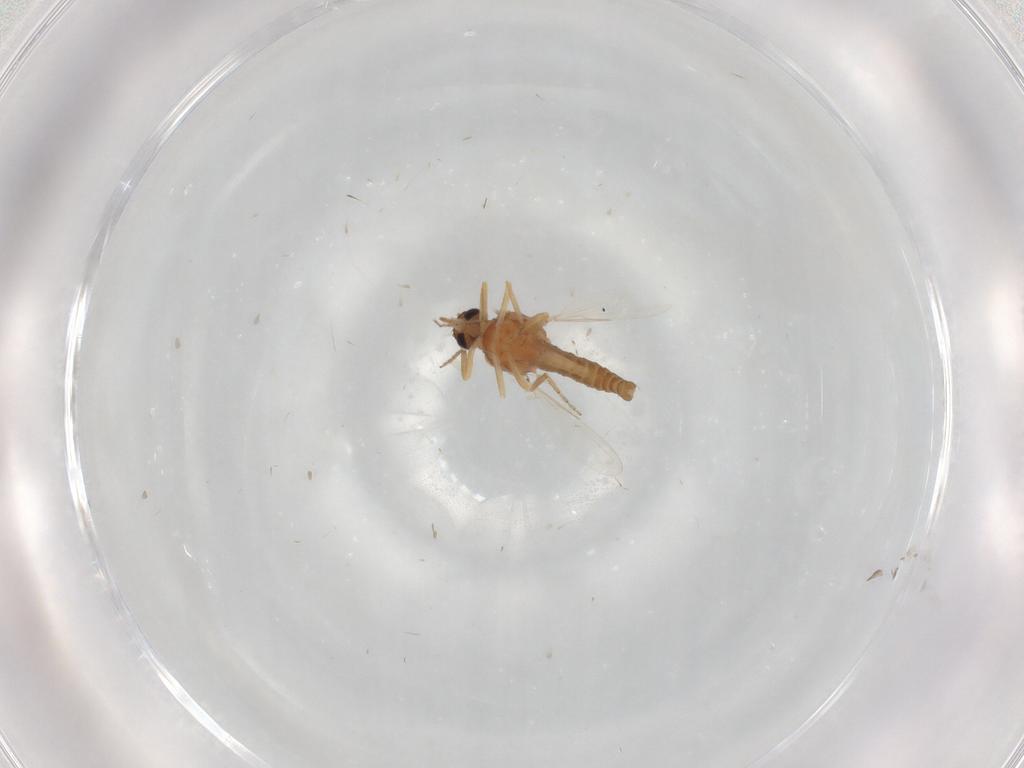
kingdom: Animalia
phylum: Arthropoda
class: Insecta
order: Diptera
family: Ceratopogonidae
